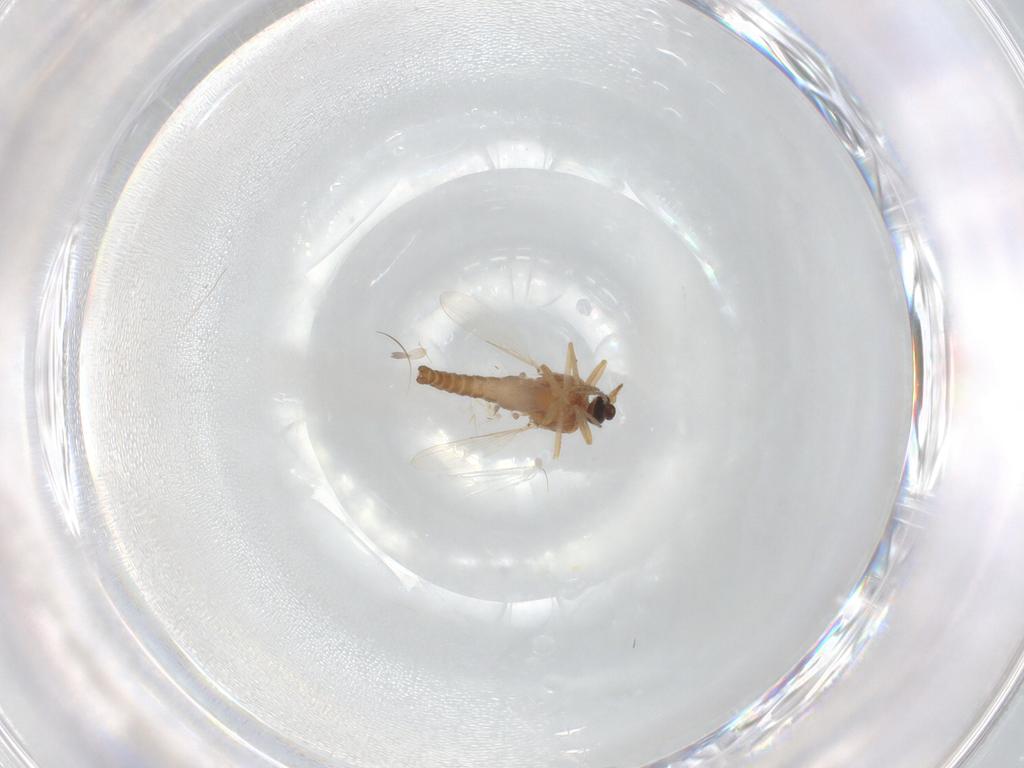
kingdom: Animalia
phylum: Arthropoda
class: Insecta
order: Diptera
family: Ceratopogonidae
